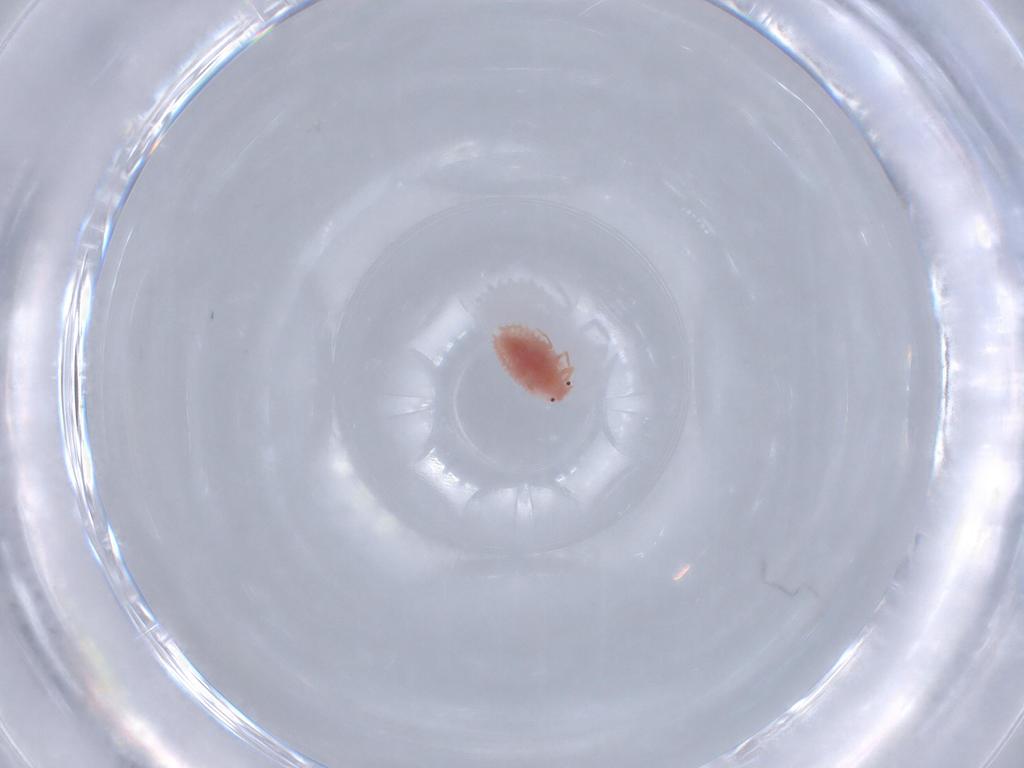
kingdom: Animalia
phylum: Arthropoda
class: Insecta
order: Hemiptera
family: Coccoidea_incertae_sedis
